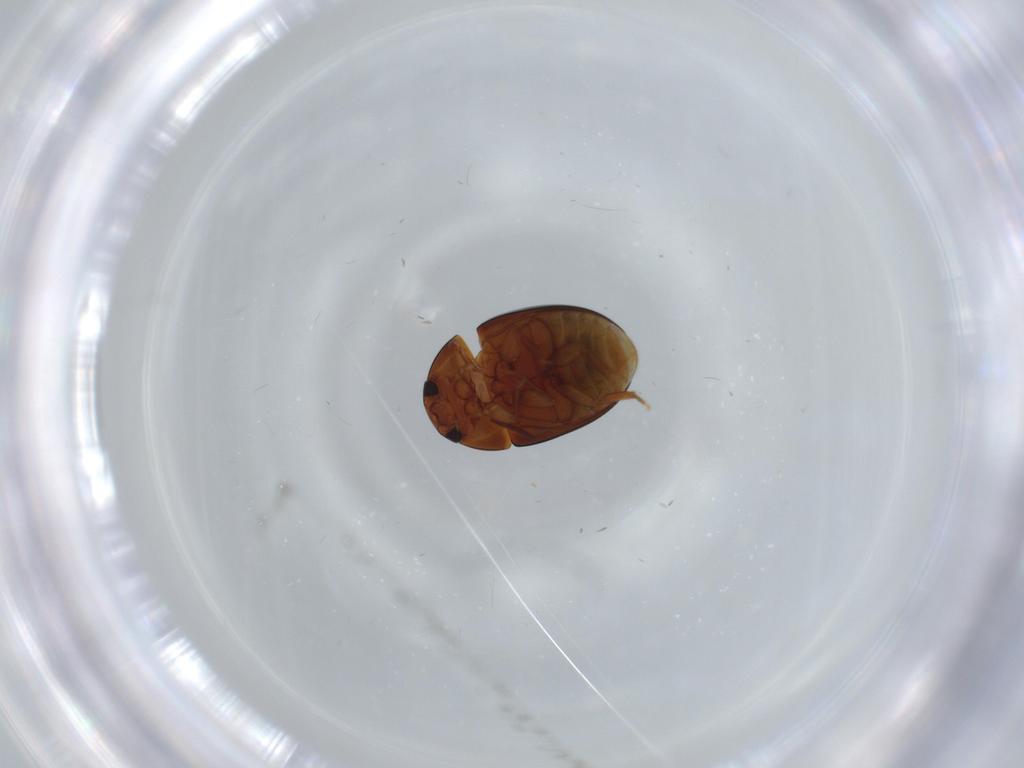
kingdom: Animalia
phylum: Arthropoda
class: Insecta
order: Coleoptera
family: Phalacridae
